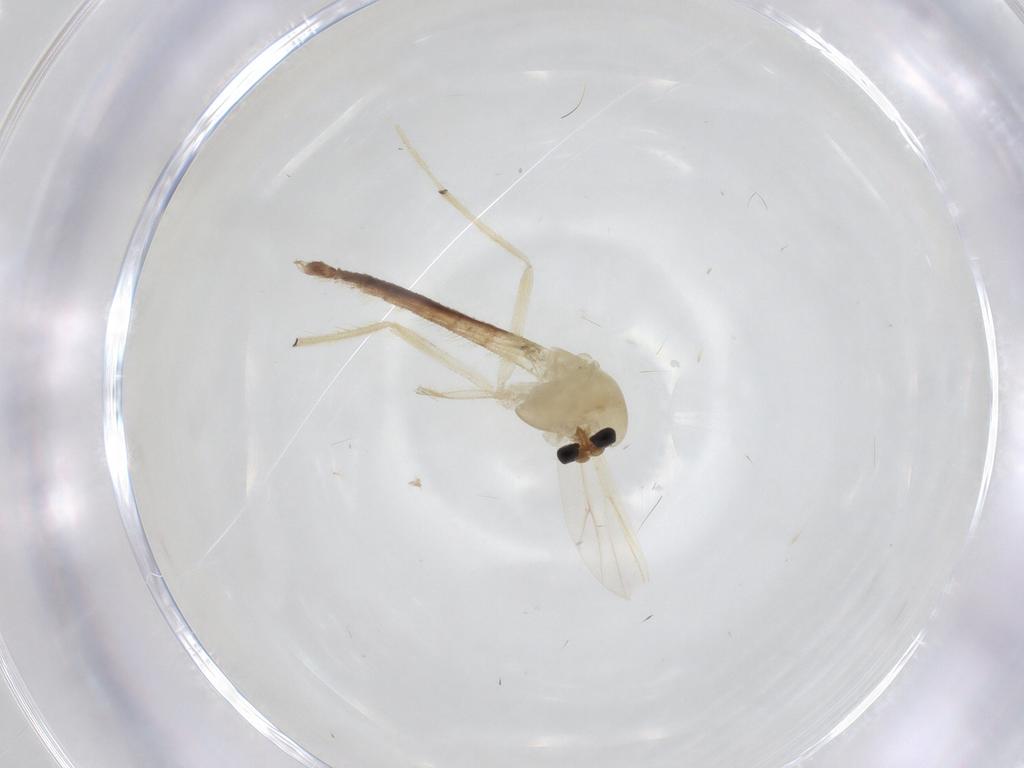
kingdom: Animalia
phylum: Arthropoda
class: Insecta
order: Diptera
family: Chironomidae
